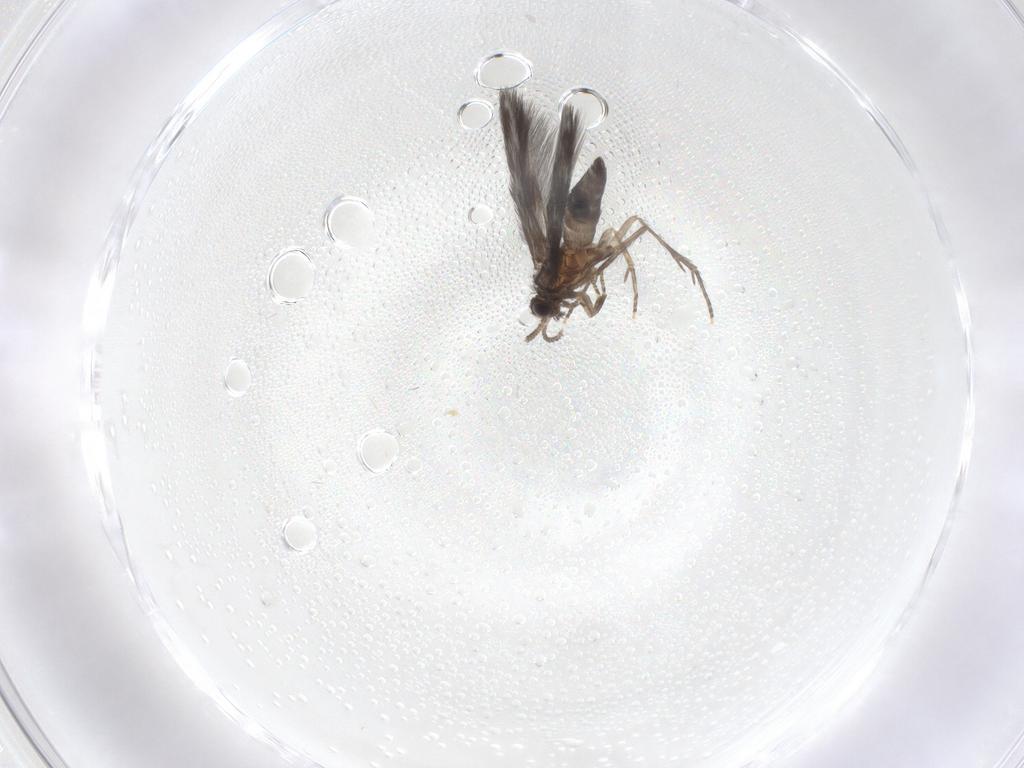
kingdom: Animalia
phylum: Arthropoda
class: Insecta
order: Trichoptera
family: Hydroptilidae
